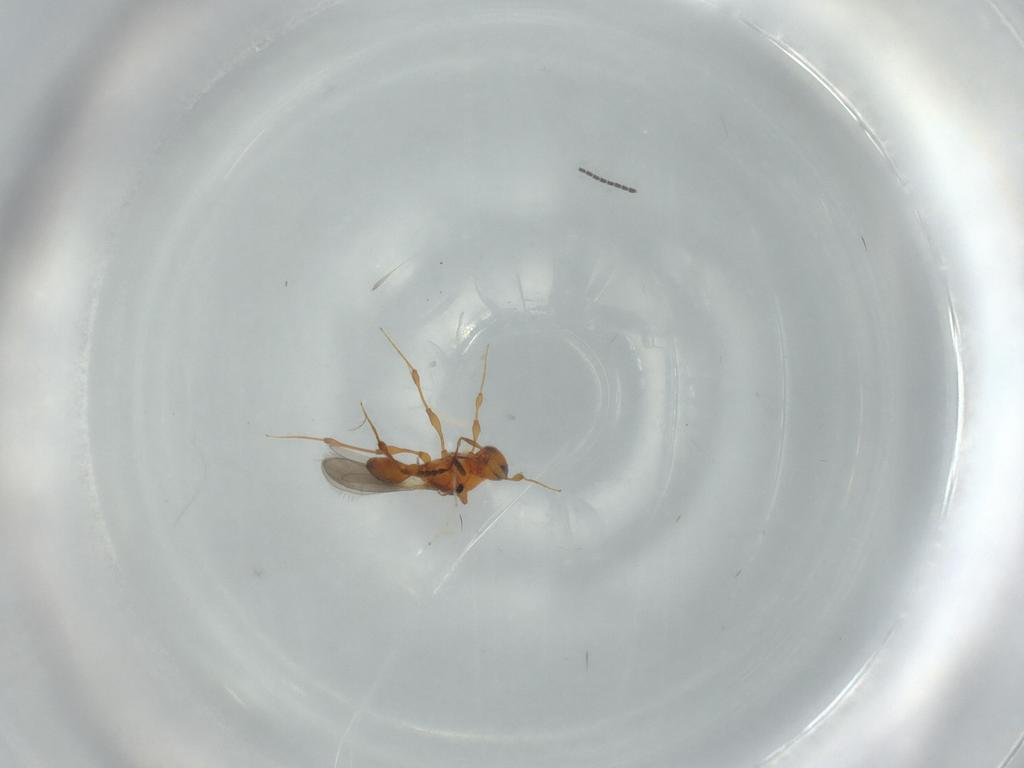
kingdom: Animalia
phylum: Arthropoda
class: Insecta
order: Hymenoptera
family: Platygastridae
